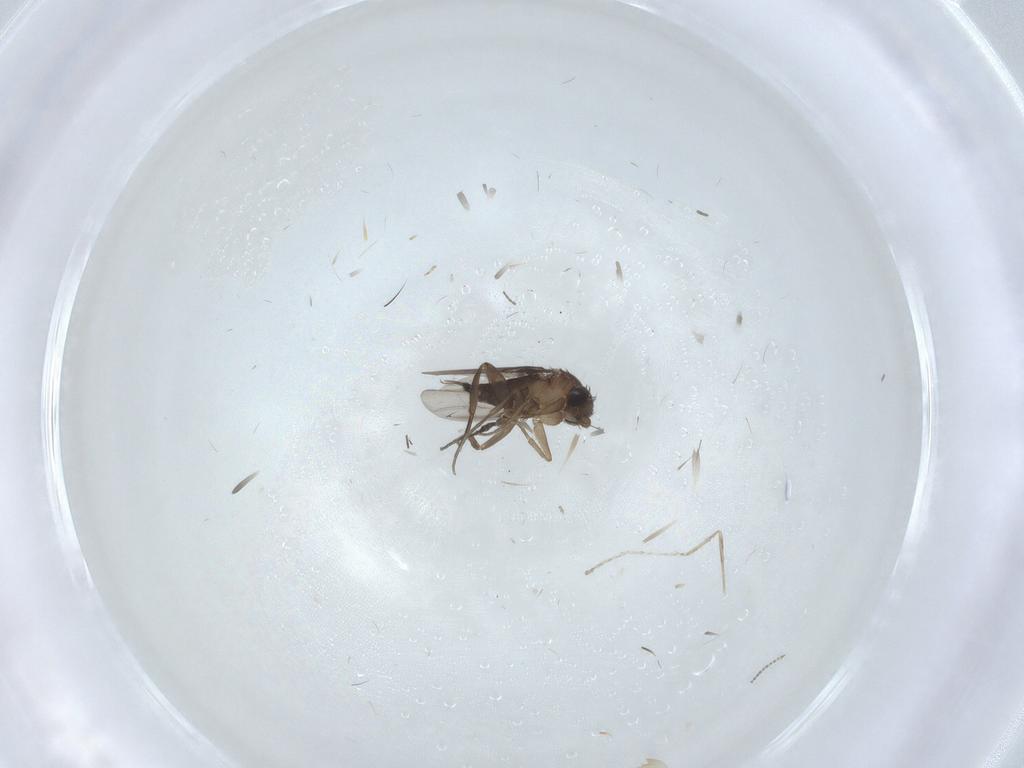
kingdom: Animalia
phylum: Arthropoda
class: Insecta
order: Diptera
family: Phoridae
